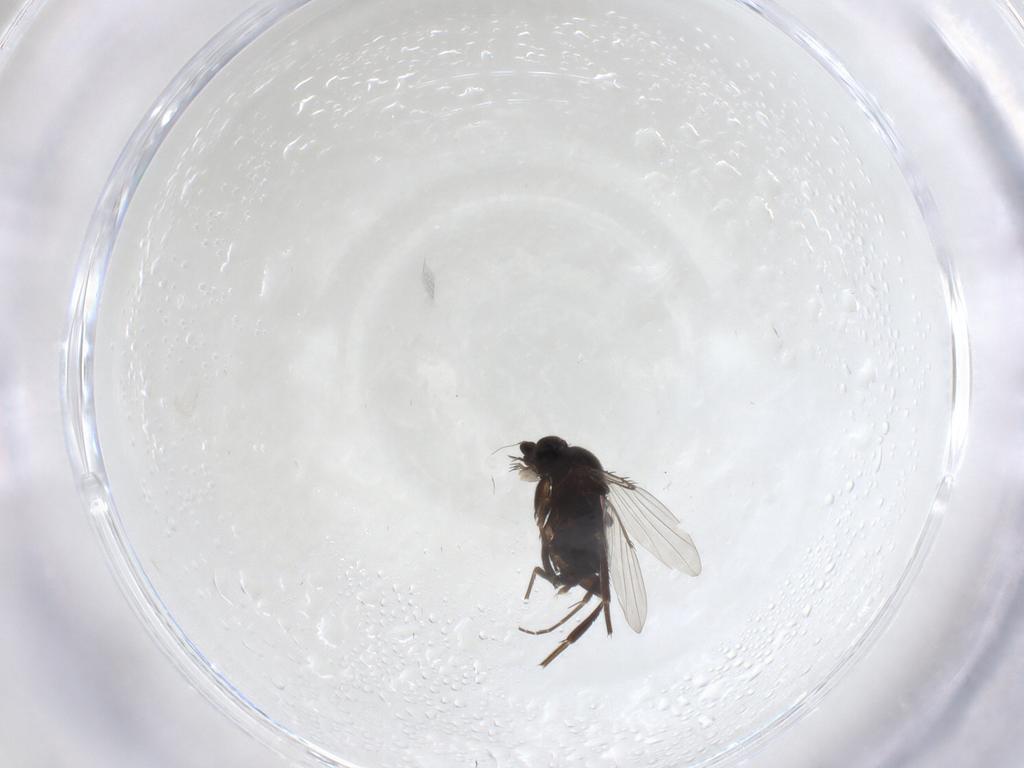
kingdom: Animalia
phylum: Arthropoda
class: Insecta
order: Diptera
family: Phoridae
